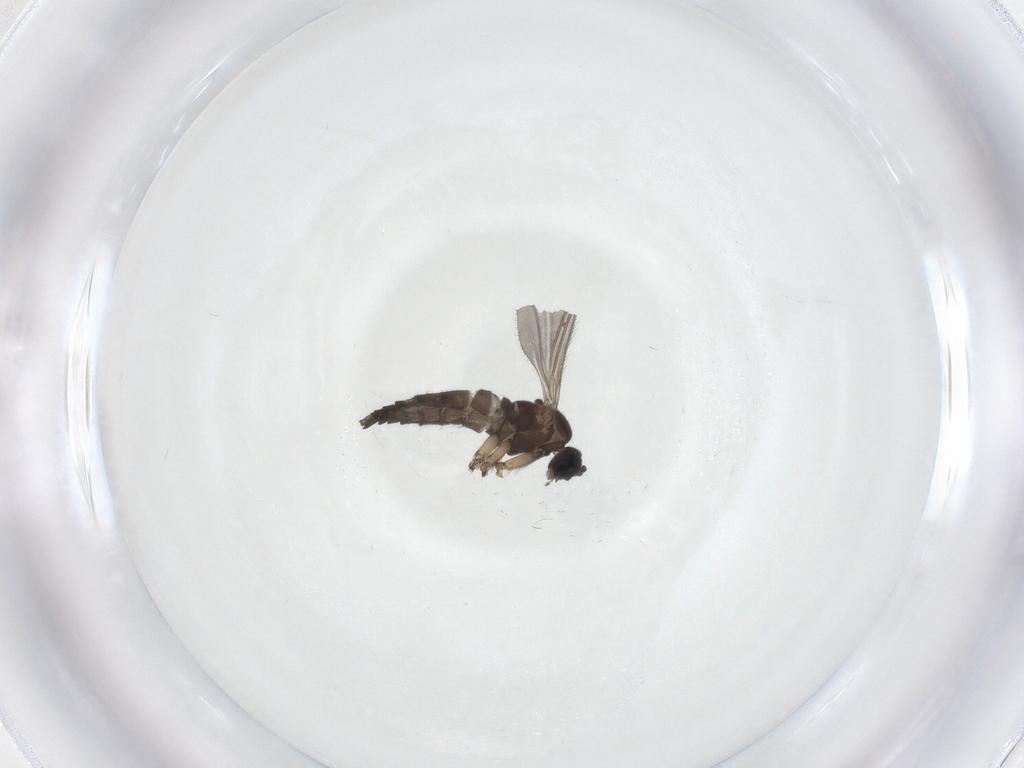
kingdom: Animalia
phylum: Arthropoda
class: Insecta
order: Diptera
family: Sciaridae
